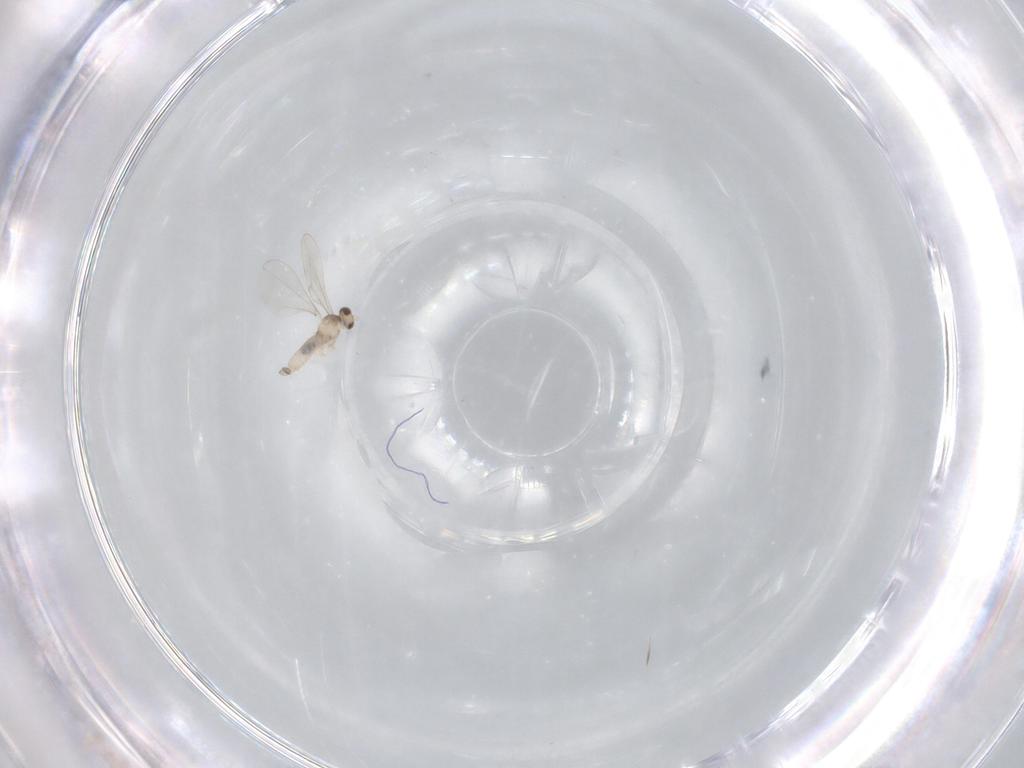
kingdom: Animalia
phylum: Arthropoda
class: Insecta
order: Diptera
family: Cecidomyiidae
